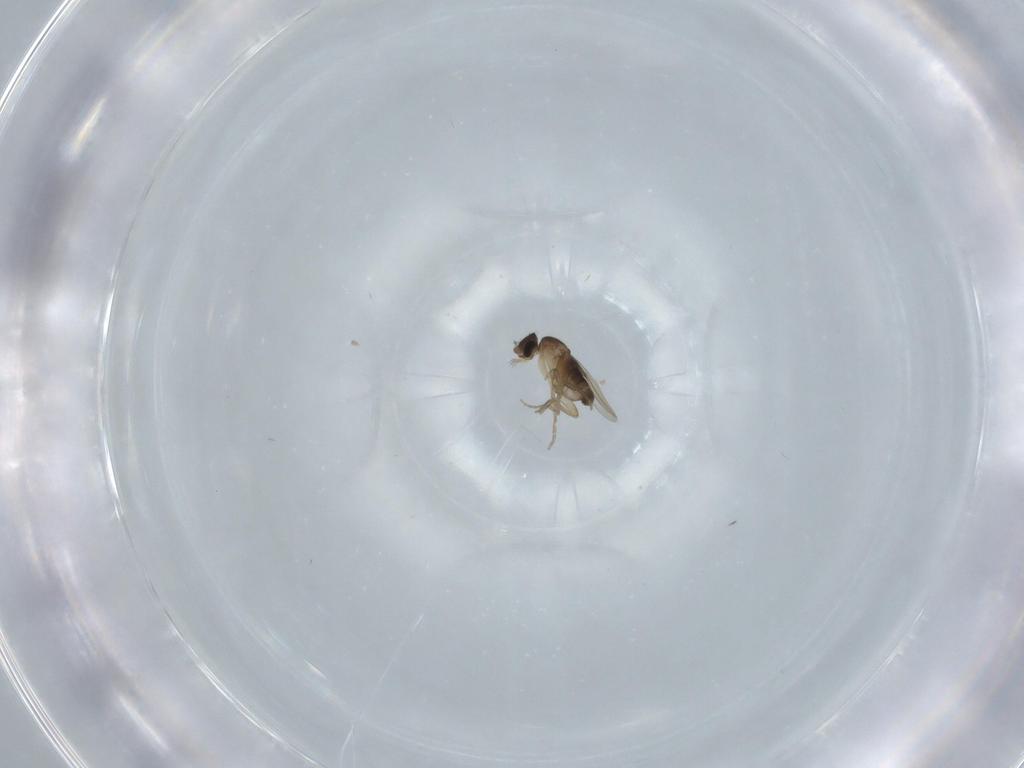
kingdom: Animalia
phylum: Arthropoda
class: Insecta
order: Diptera
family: Phoridae
